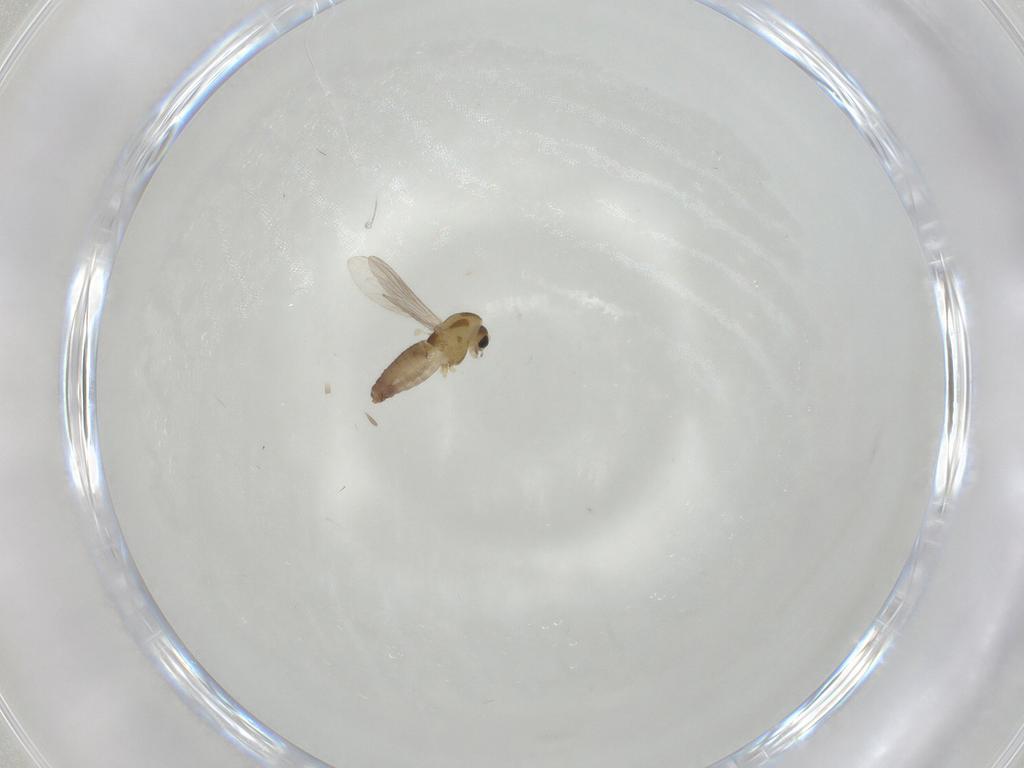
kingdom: Animalia
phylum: Arthropoda
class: Insecta
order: Diptera
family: Chironomidae
